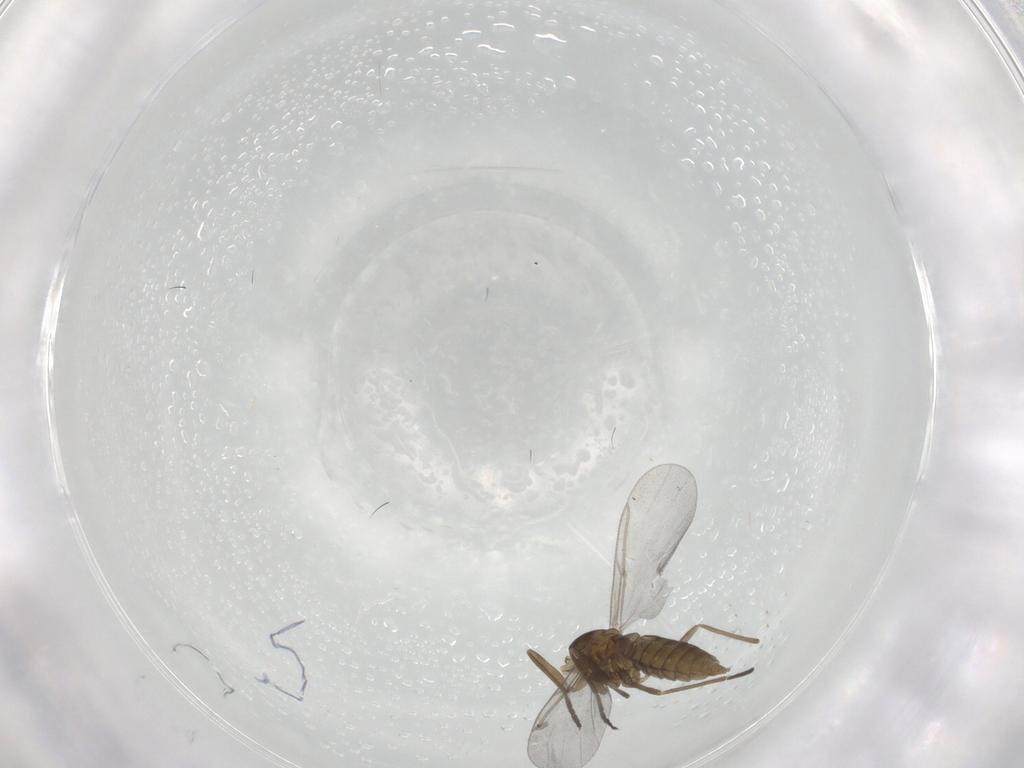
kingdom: Animalia
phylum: Arthropoda
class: Insecta
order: Diptera
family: Cecidomyiidae
